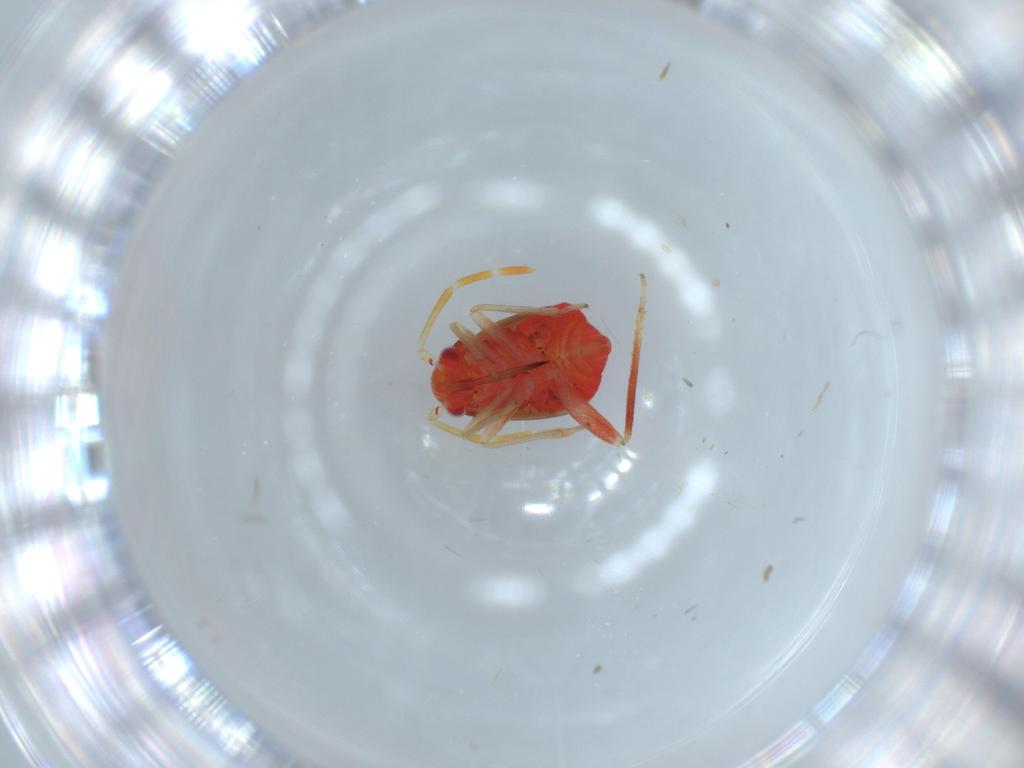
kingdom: Animalia
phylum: Arthropoda
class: Insecta
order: Hemiptera
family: Miridae
